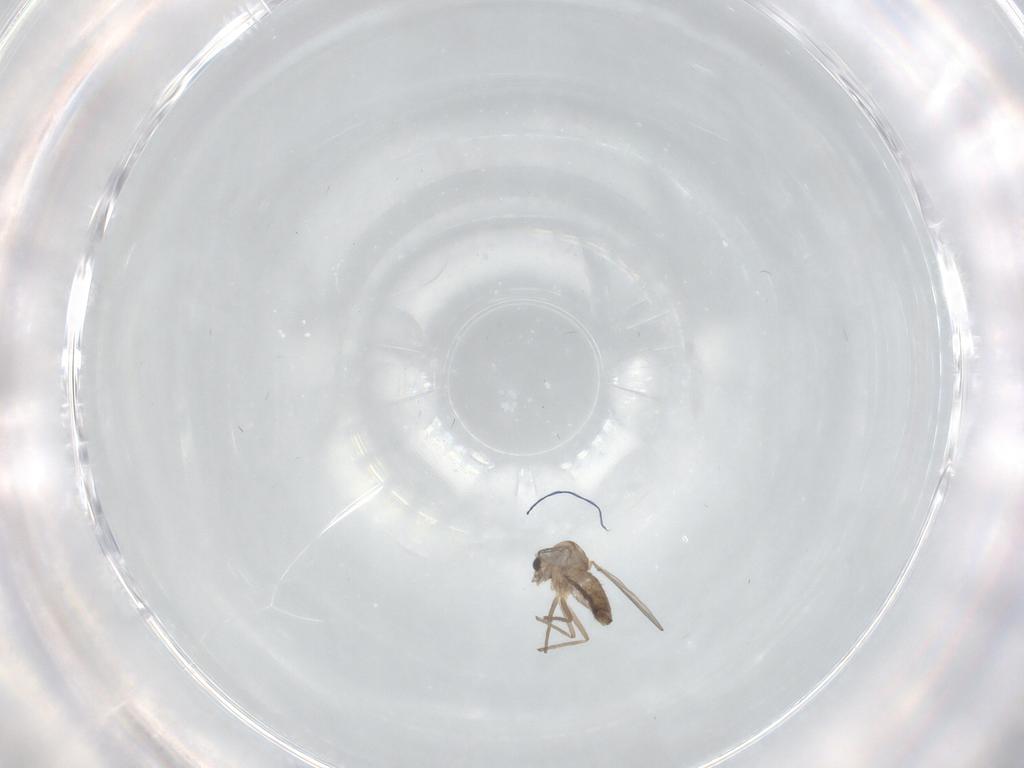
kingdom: Animalia
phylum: Arthropoda
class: Insecta
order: Diptera
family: Chironomidae
